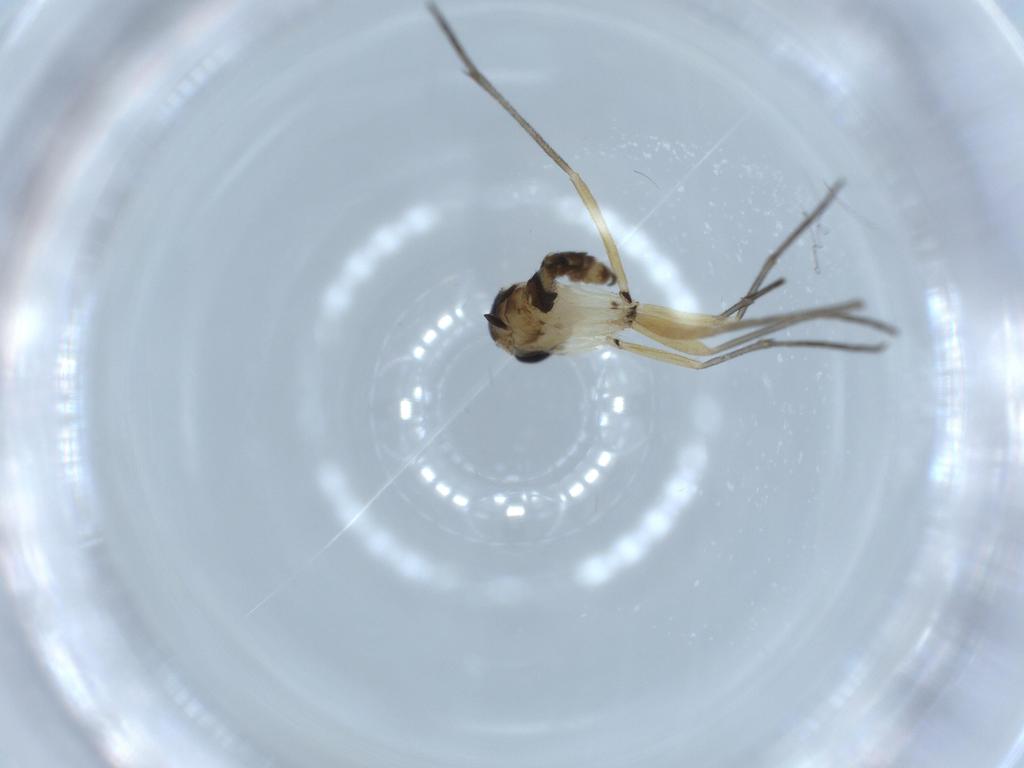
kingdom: Animalia
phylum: Arthropoda
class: Insecta
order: Diptera
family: Sciaridae
